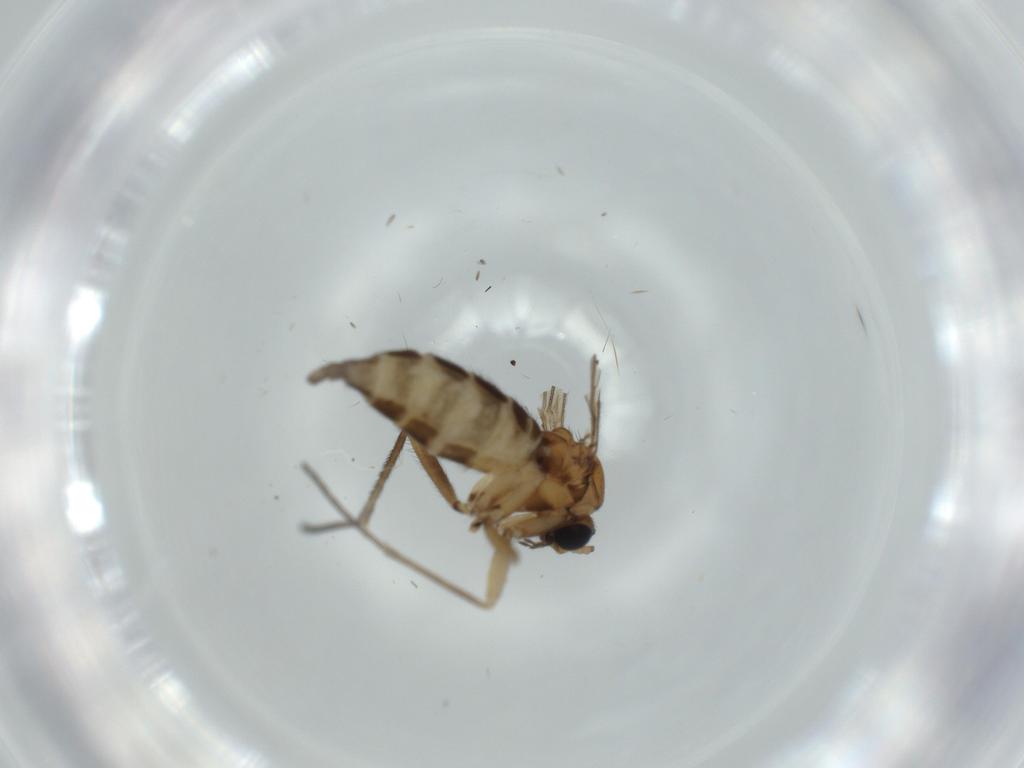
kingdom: Animalia
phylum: Arthropoda
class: Insecta
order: Diptera
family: Sciaridae
